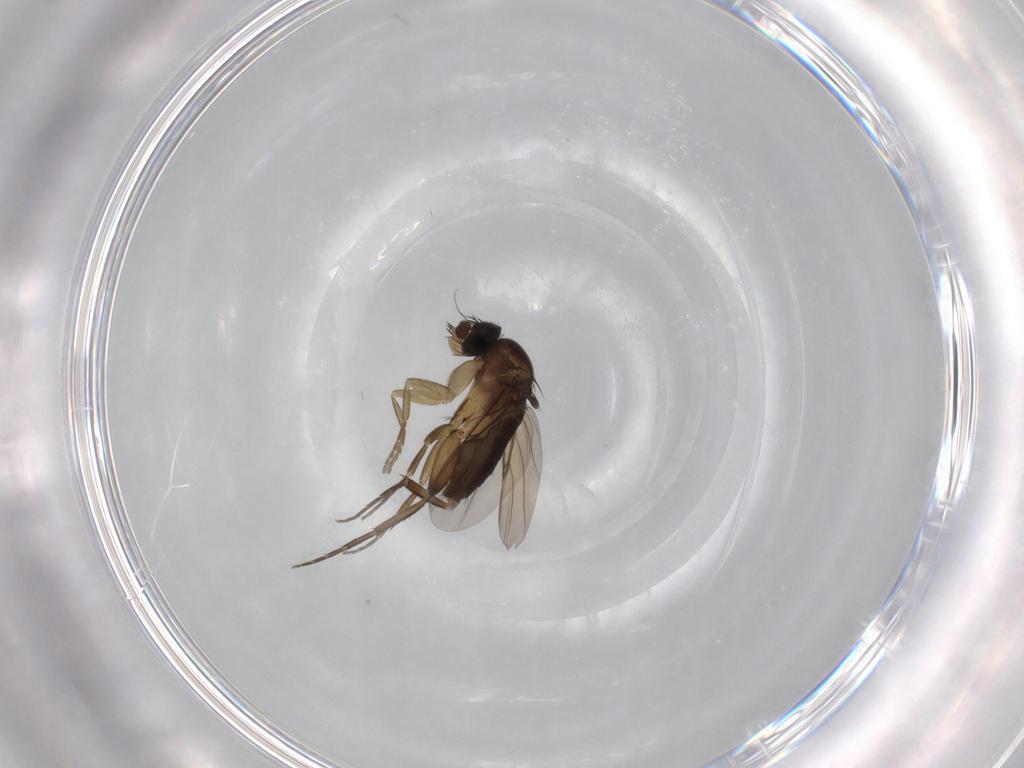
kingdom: Animalia
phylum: Arthropoda
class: Insecta
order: Diptera
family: Phoridae
